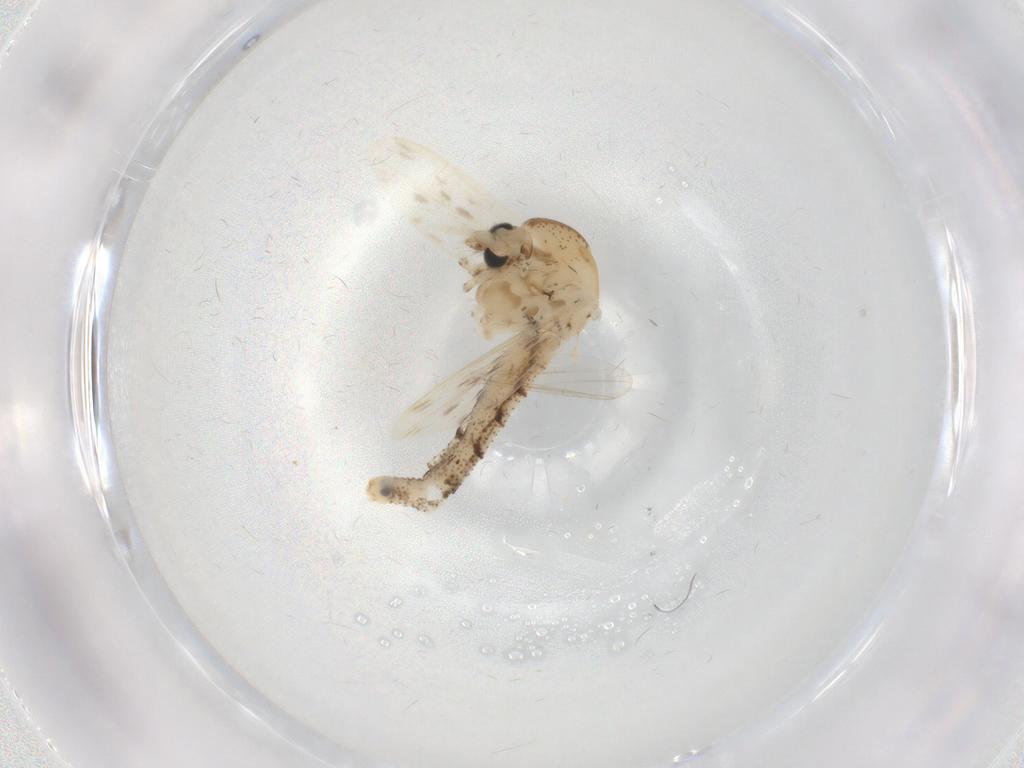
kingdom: Animalia
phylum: Arthropoda
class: Insecta
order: Diptera
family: Chaoboridae
